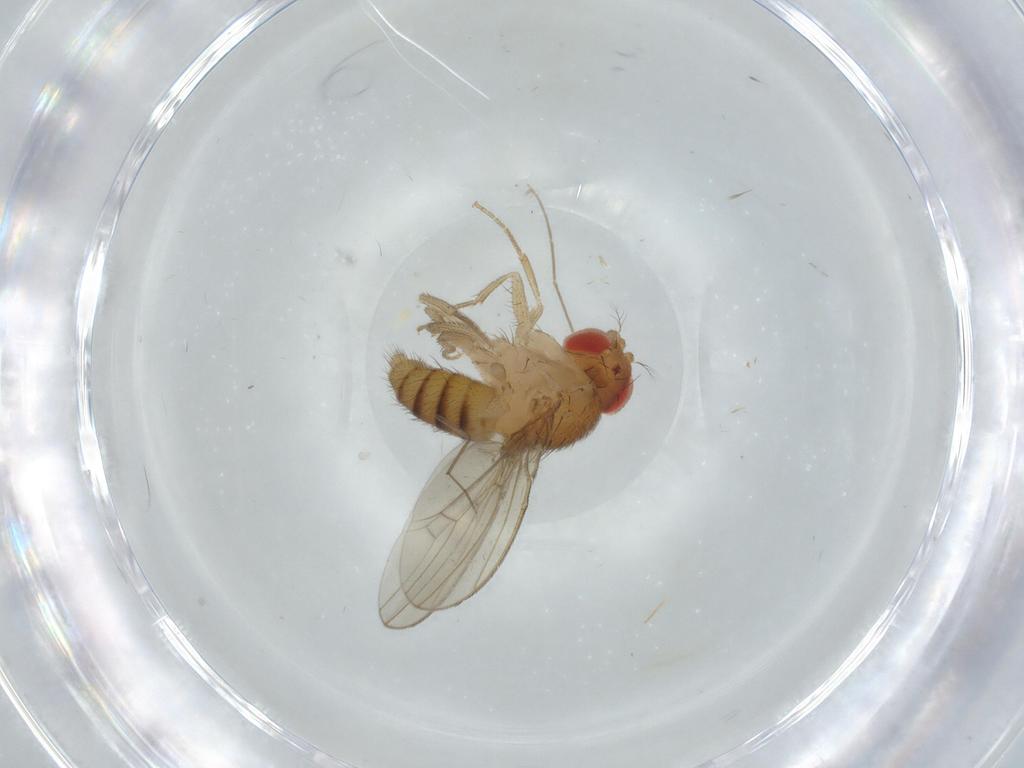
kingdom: Animalia
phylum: Arthropoda
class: Insecta
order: Diptera
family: Drosophilidae
